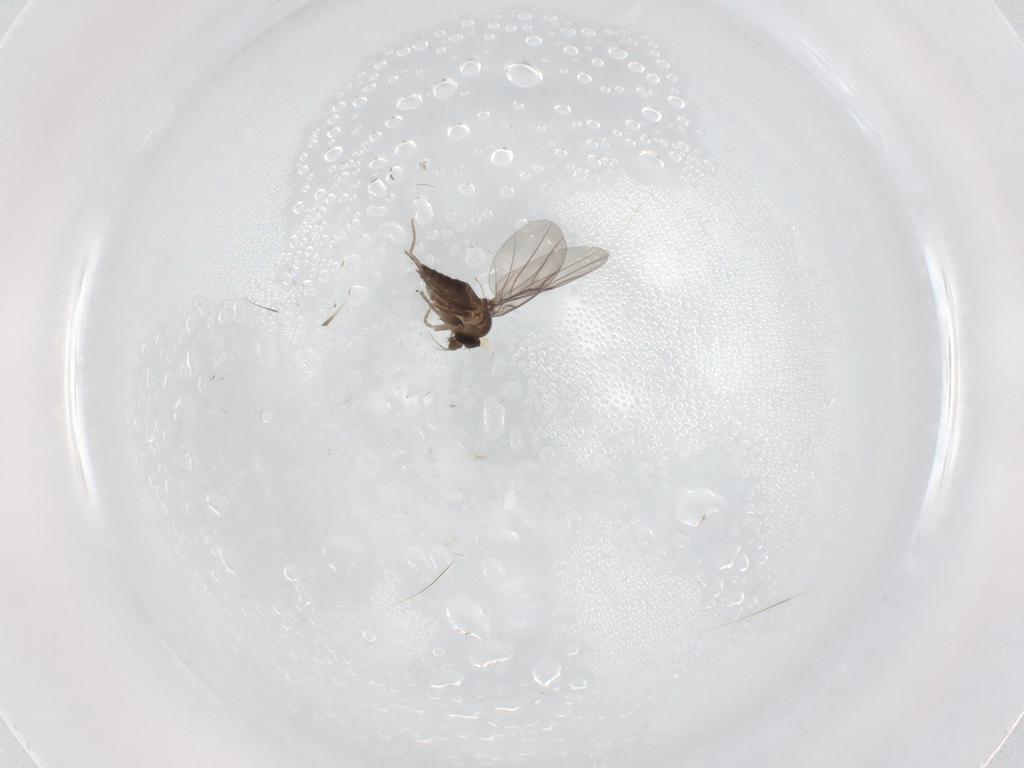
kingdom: Animalia
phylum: Arthropoda
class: Insecta
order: Diptera
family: Cecidomyiidae
